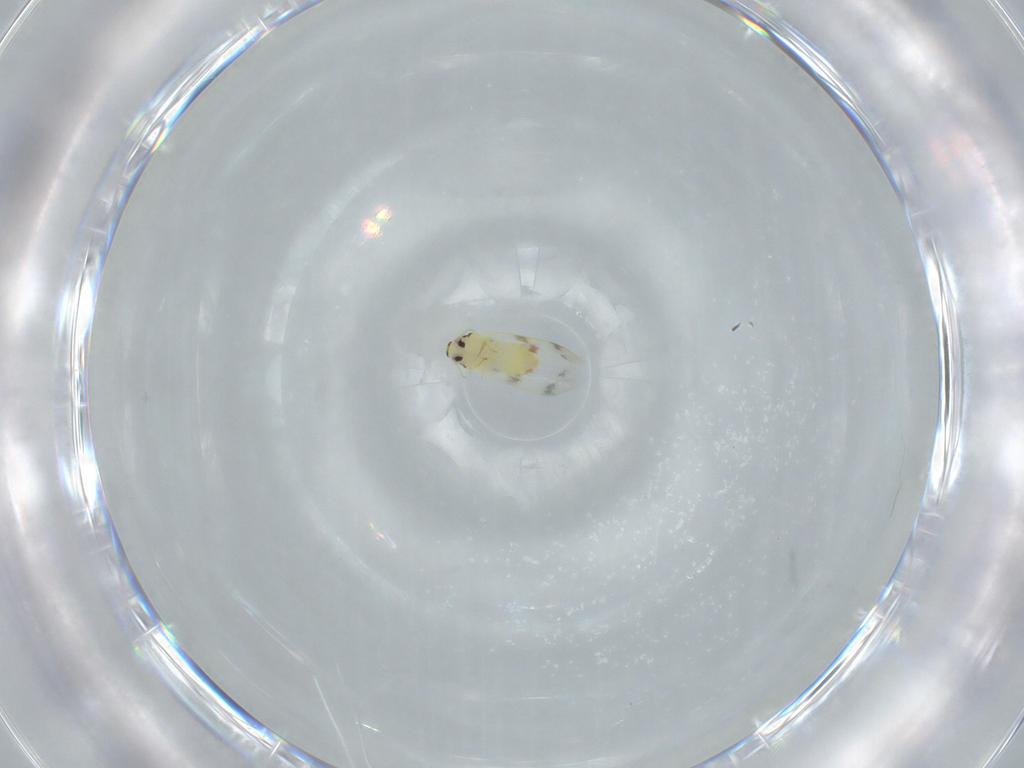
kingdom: Animalia
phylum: Arthropoda
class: Insecta
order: Hemiptera
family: Aleyrodidae
